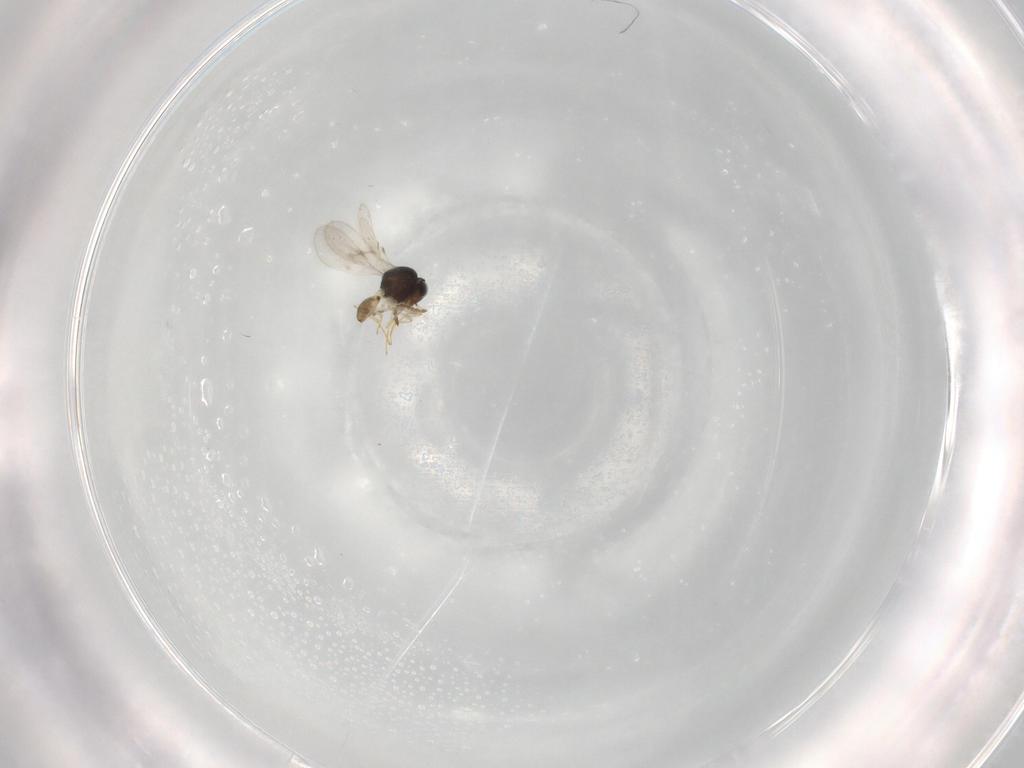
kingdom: Animalia
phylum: Arthropoda
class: Insecta
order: Hymenoptera
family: Scelionidae
